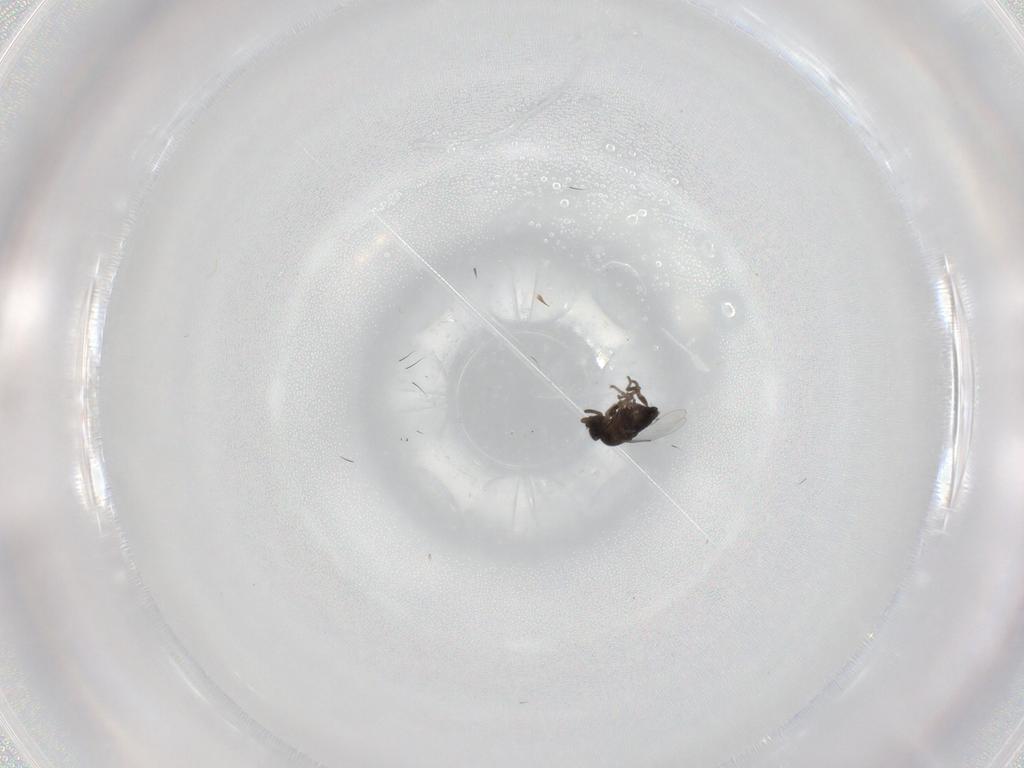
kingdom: Animalia
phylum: Arthropoda
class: Insecta
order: Diptera
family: Phoridae
